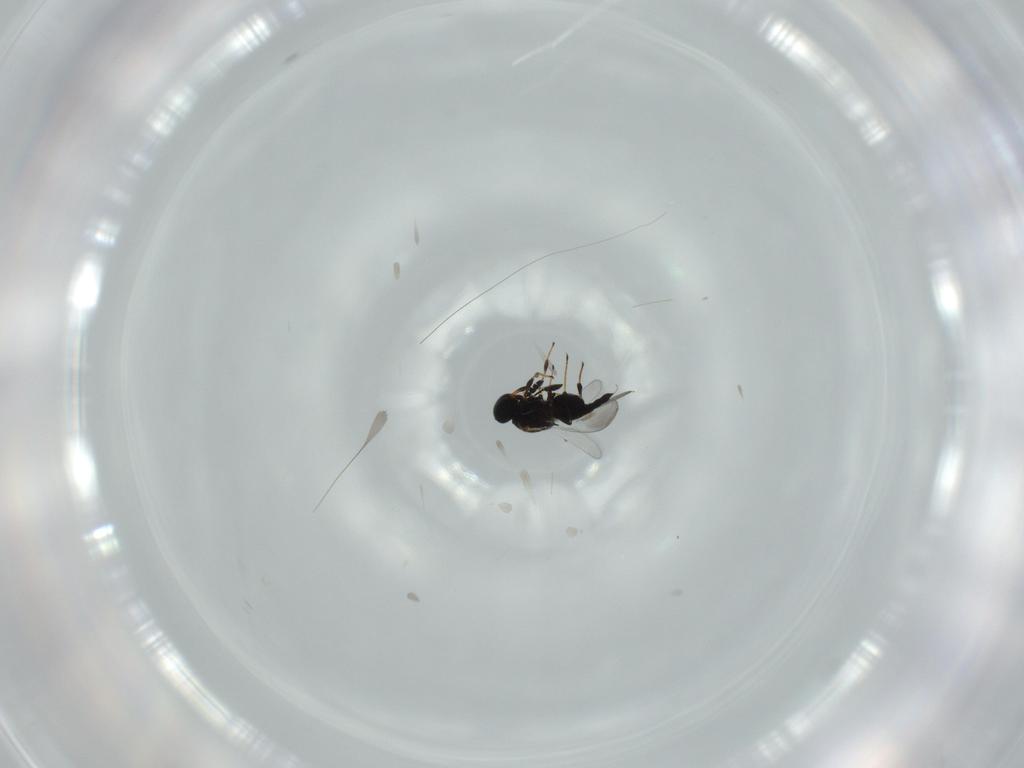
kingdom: Animalia
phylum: Arthropoda
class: Insecta
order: Hymenoptera
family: Platygastridae
